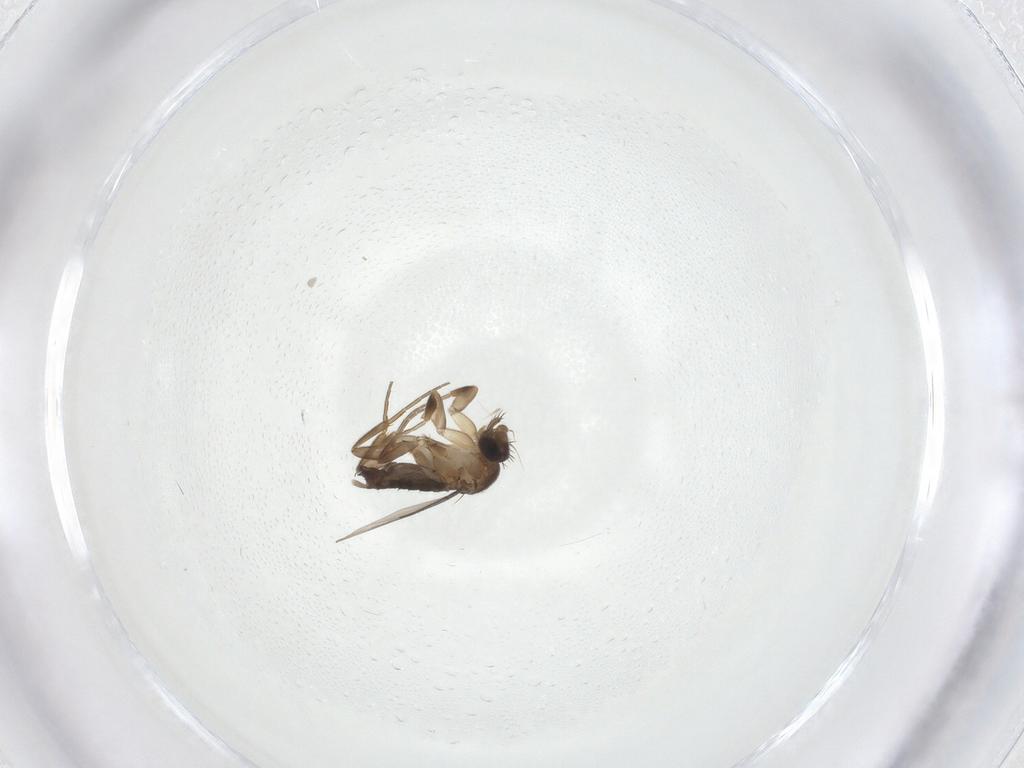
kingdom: Animalia
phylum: Arthropoda
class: Insecta
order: Diptera
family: Phoridae
